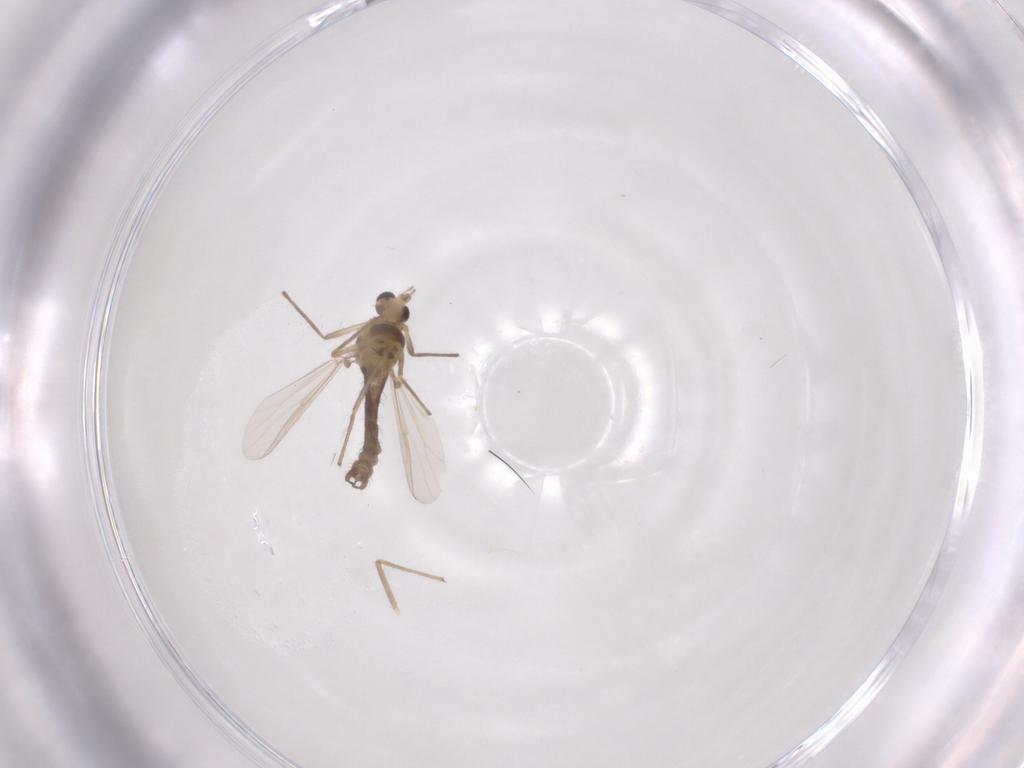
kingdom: Animalia
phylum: Arthropoda
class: Insecta
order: Diptera
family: Chironomidae
